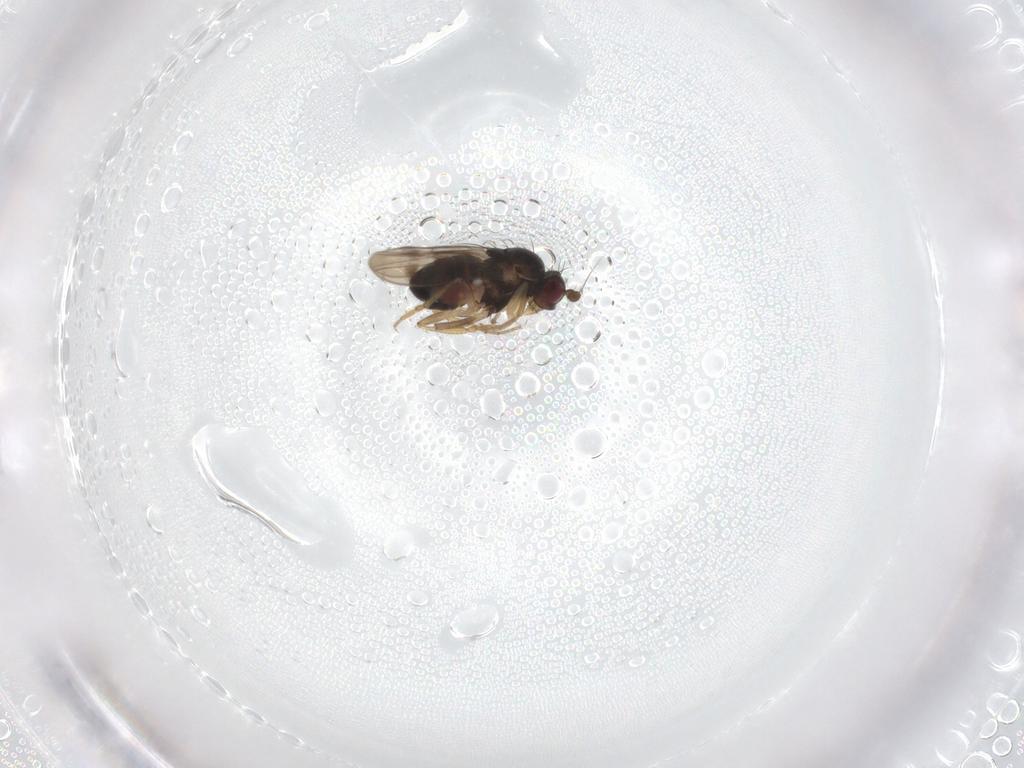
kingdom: Animalia
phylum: Arthropoda
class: Insecta
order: Diptera
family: Sphaeroceridae
